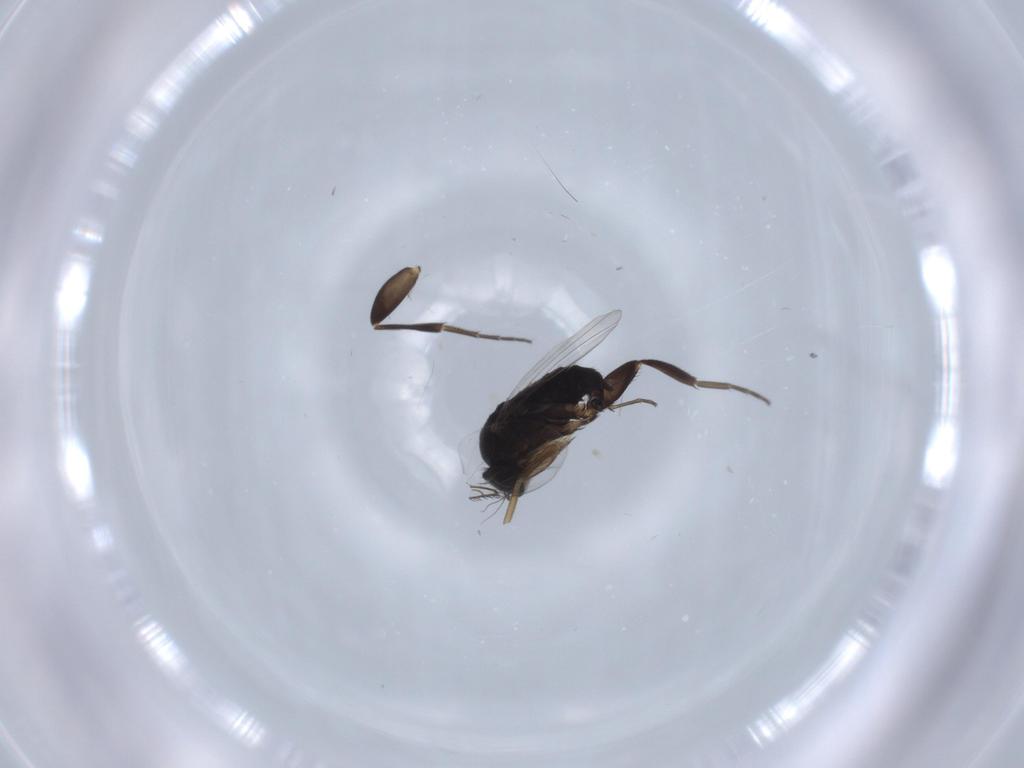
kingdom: Animalia
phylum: Arthropoda
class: Insecta
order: Diptera
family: Phoridae
